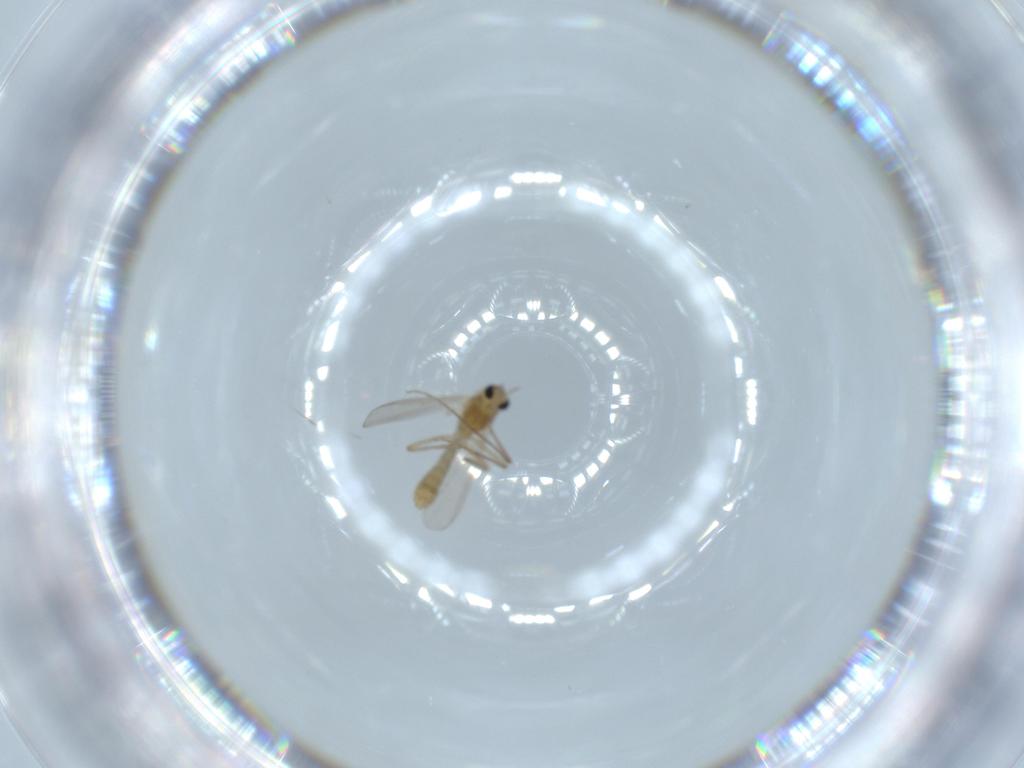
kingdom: Animalia
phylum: Arthropoda
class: Insecta
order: Diptera
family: Chironomidae
